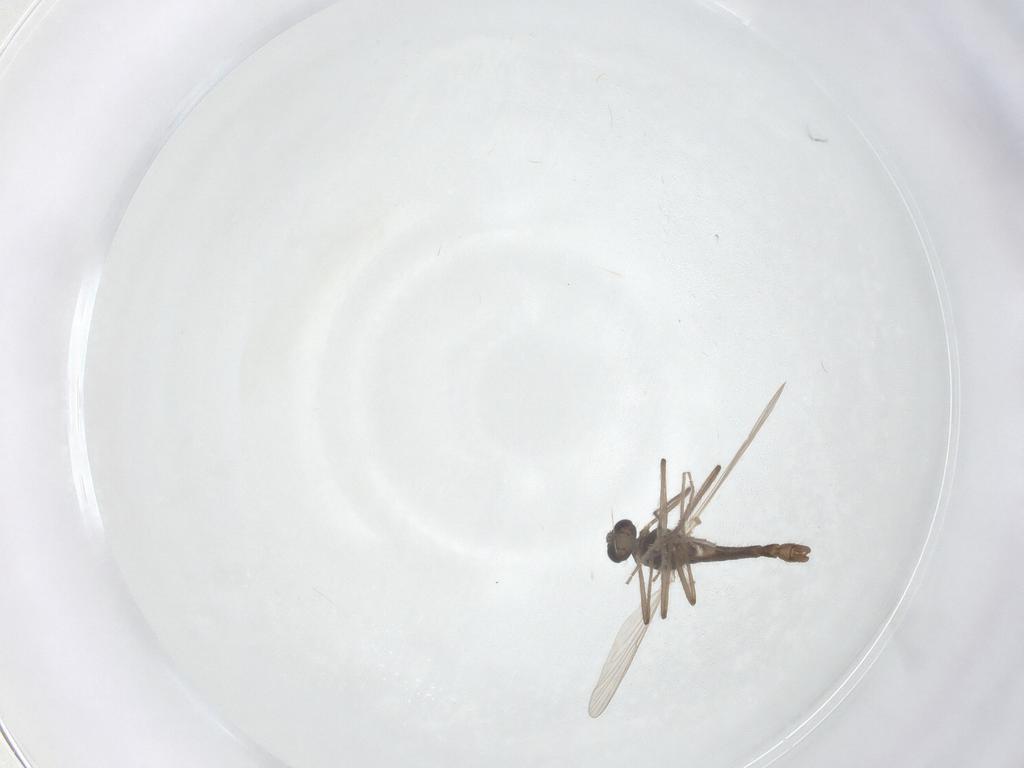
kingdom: Animalia
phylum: Arthropoda
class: Insecta
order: Diptera
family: Chironomidae
